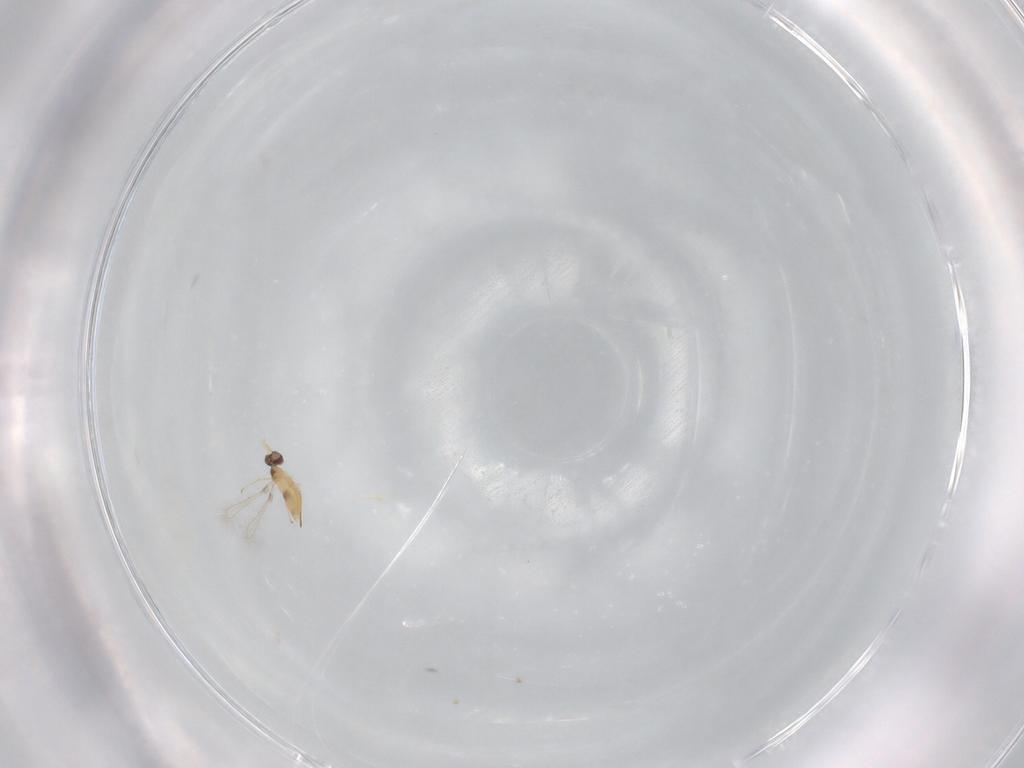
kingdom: Animalia
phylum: Arthropoda
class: Insecta
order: Hymenoptera
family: Mymaridae
